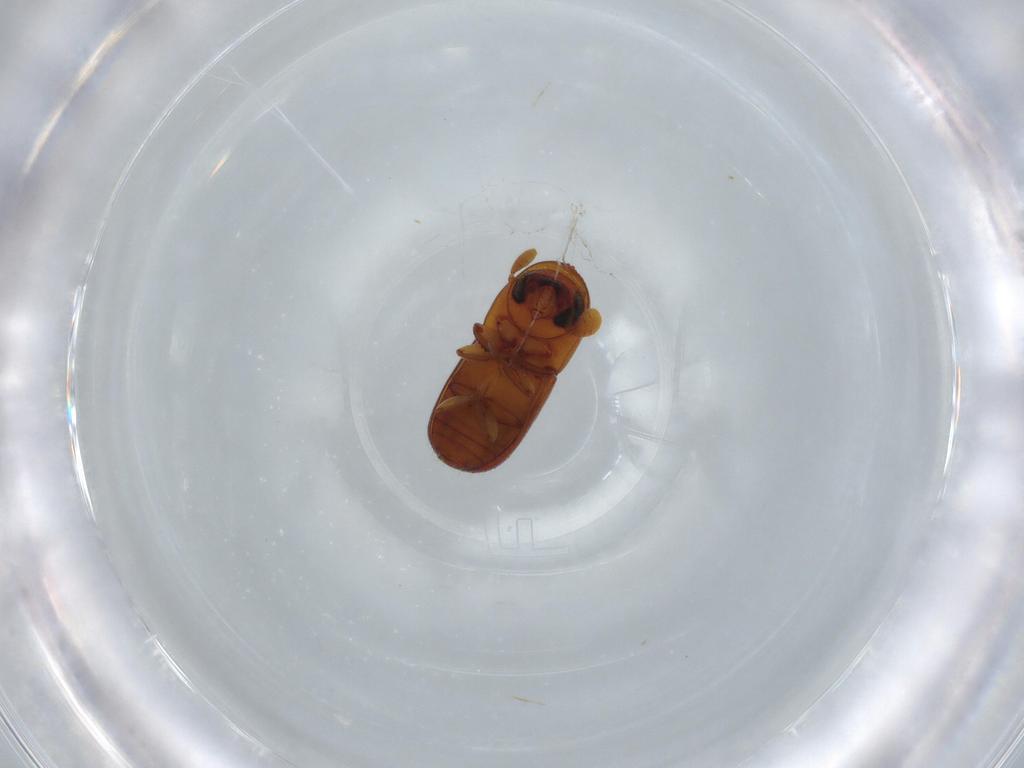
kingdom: Animalia
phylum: Arthropoda
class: Insecta
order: Coleoptera
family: Curculionidae
